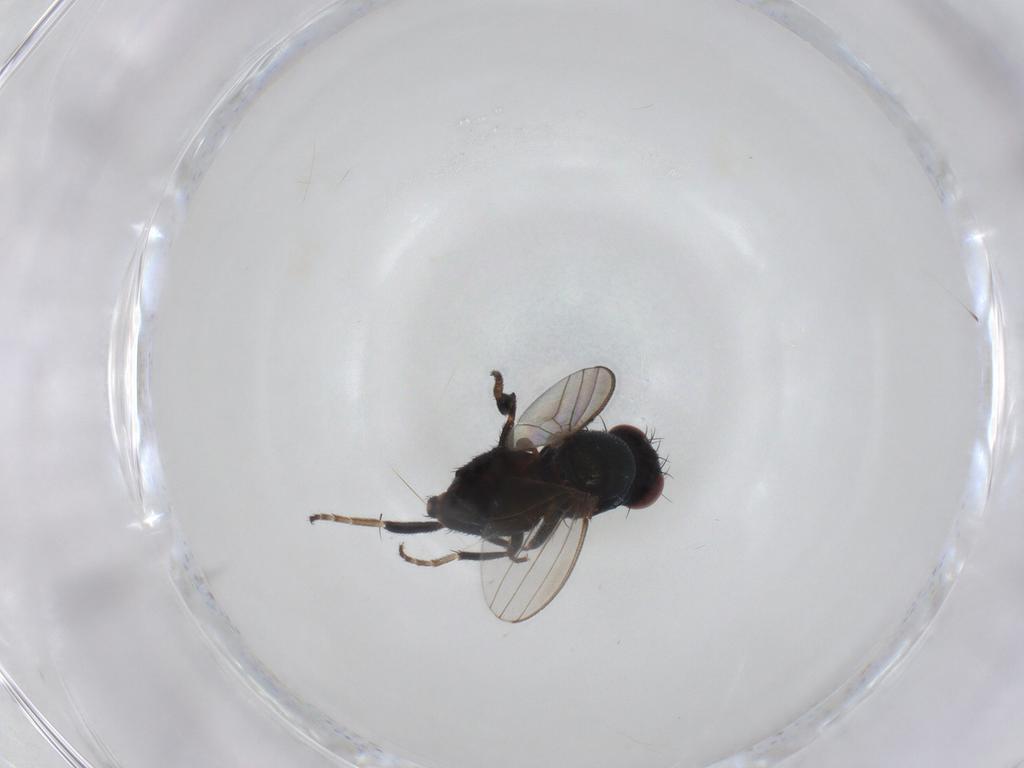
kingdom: Animalia
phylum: Arthropoda
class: Insecta
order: Diptera
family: Chloropidae
